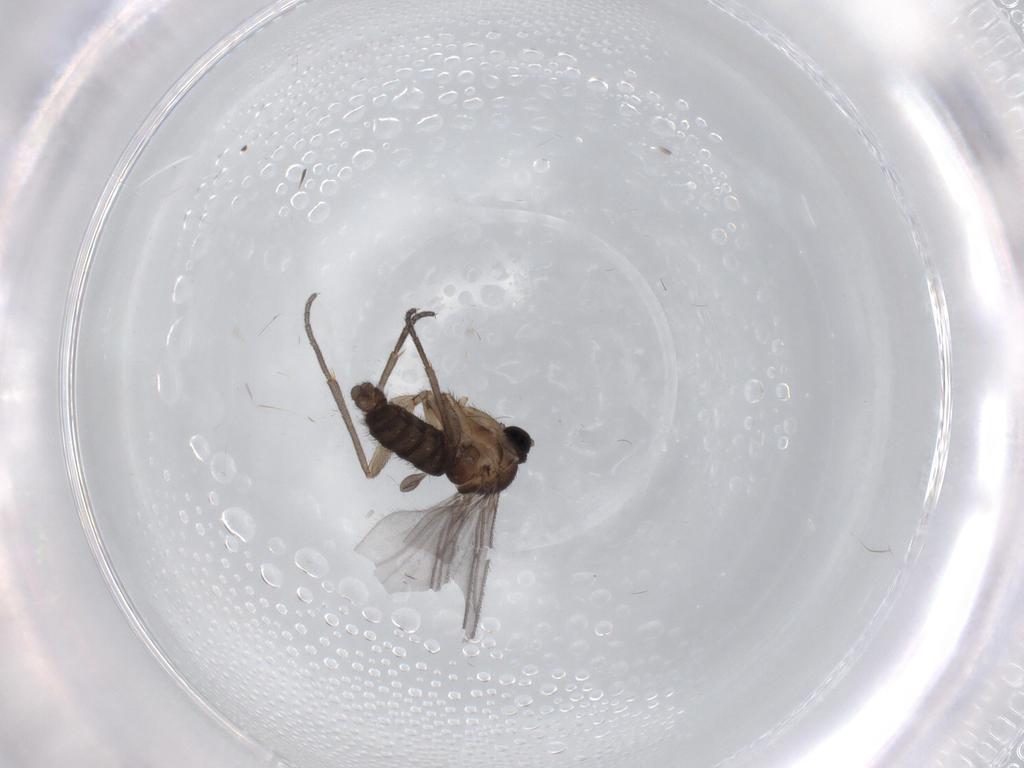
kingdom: Animalia
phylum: Arthropoda
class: Insecta
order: Diptera
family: Sciaridae
